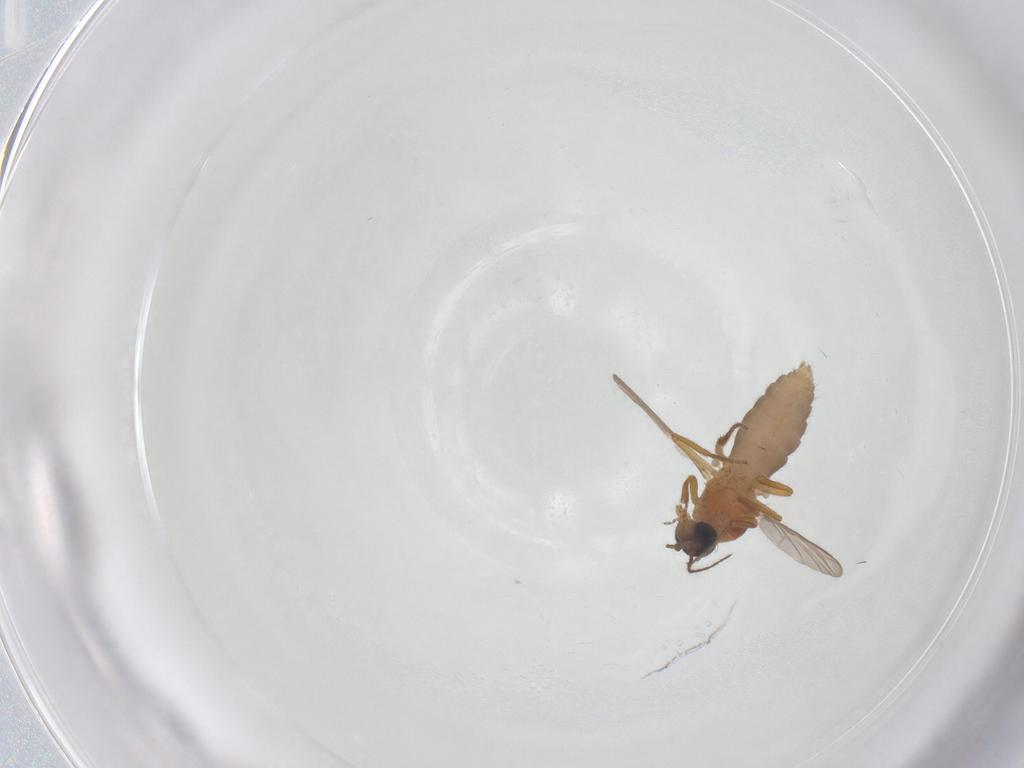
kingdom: Animalia
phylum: Arthropoda
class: Insecta
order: Diptera
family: Ceratopogonidae
